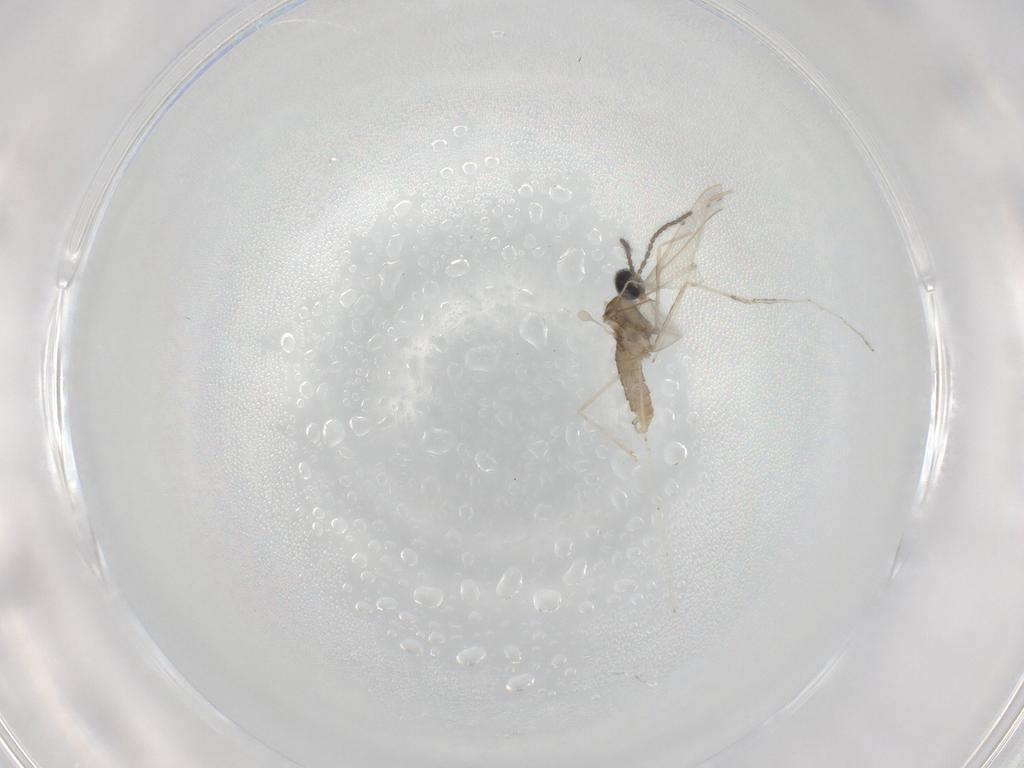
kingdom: Animalia
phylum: Arthropoda
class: Insecta
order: Diptera
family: Cecidomyiidae
